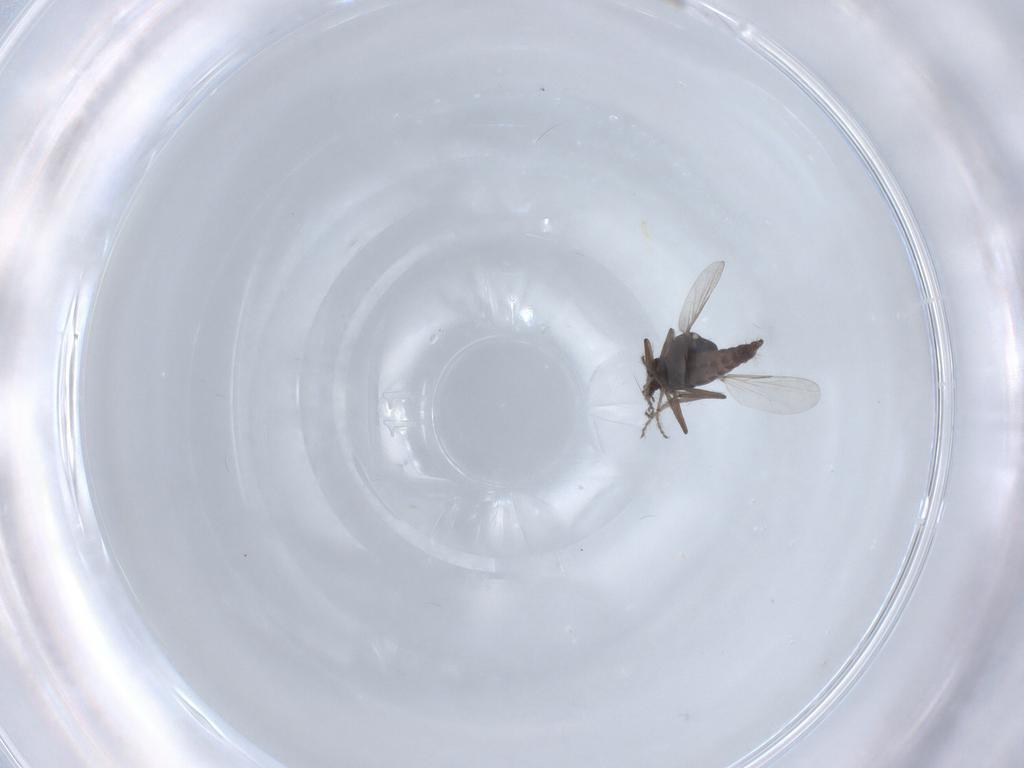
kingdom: Animalia
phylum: Arthropoda
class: Insecta
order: Diptera
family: Ceratopogonidae
